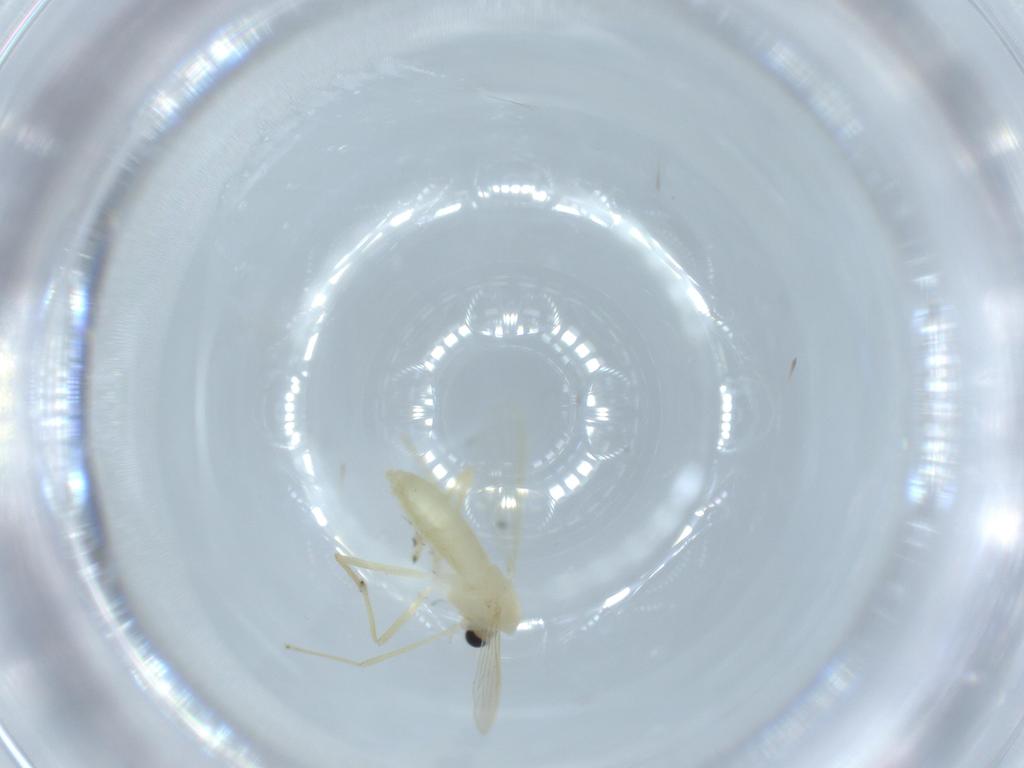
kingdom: Animalia
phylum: Arthropoda
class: Insecta
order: Diptera
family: Chironomidae
